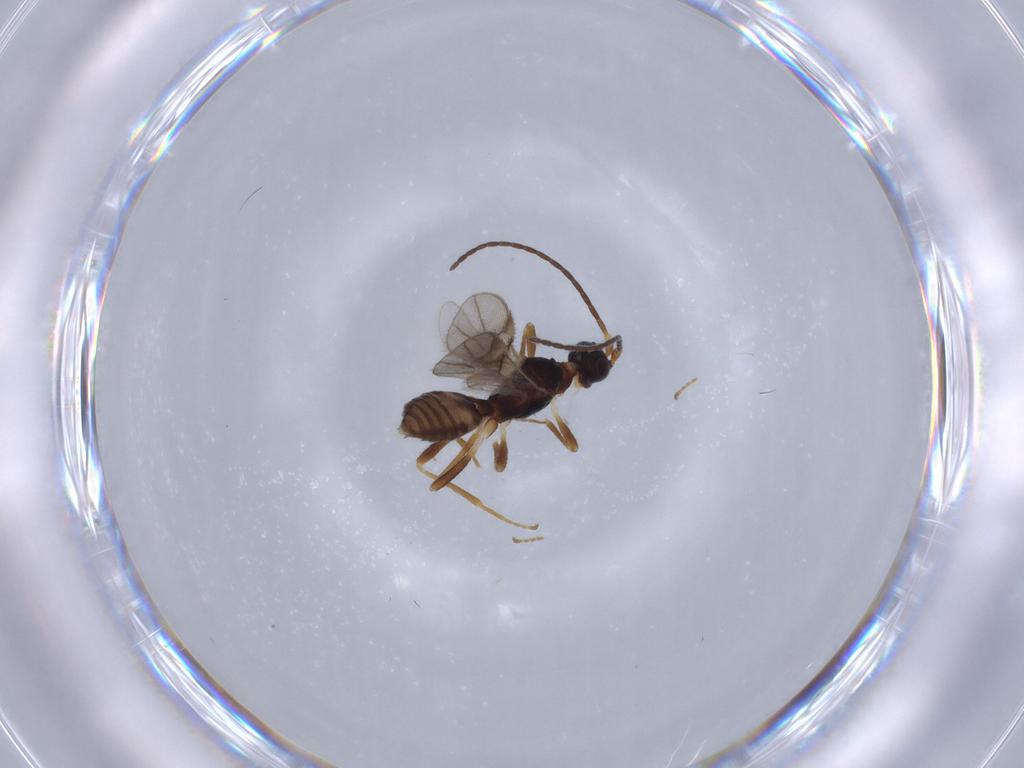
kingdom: Animalia
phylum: Arthropoda
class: Insecta
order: Hymenoptera
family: Braconidae
